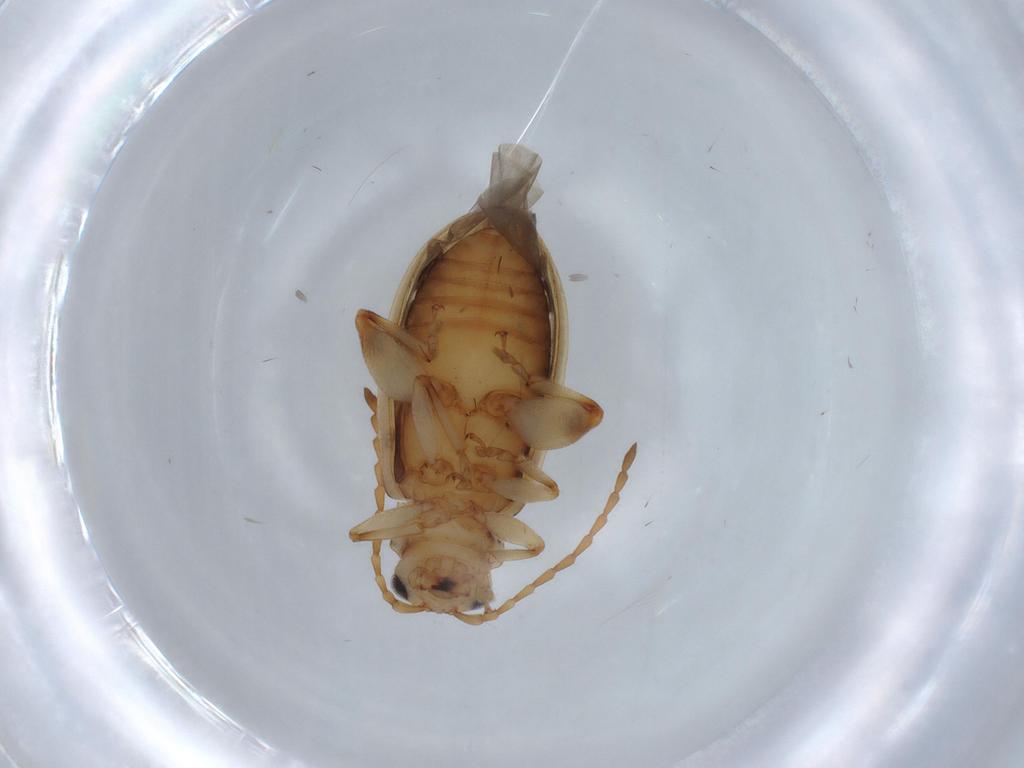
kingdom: Animalia
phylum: Arthropoda
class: Insecta
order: Coleoptera
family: Chrysomelidae
